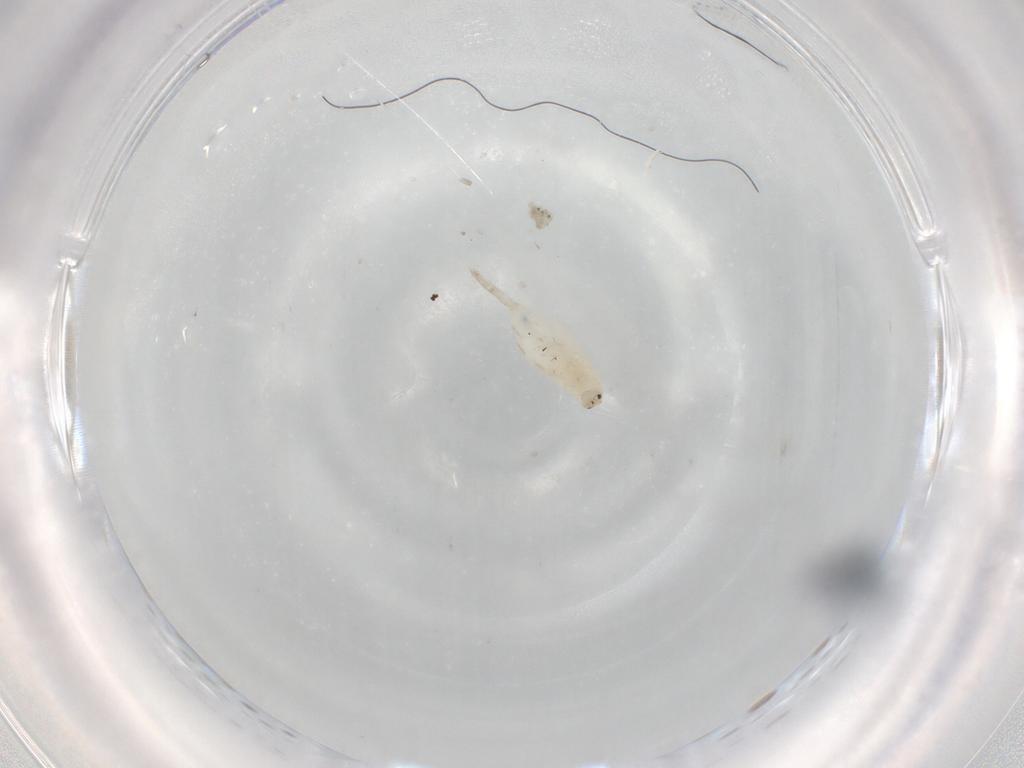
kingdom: Animalia
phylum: Arthropoda
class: Collembola
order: Entomobryomorpha
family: Entomobryidae
